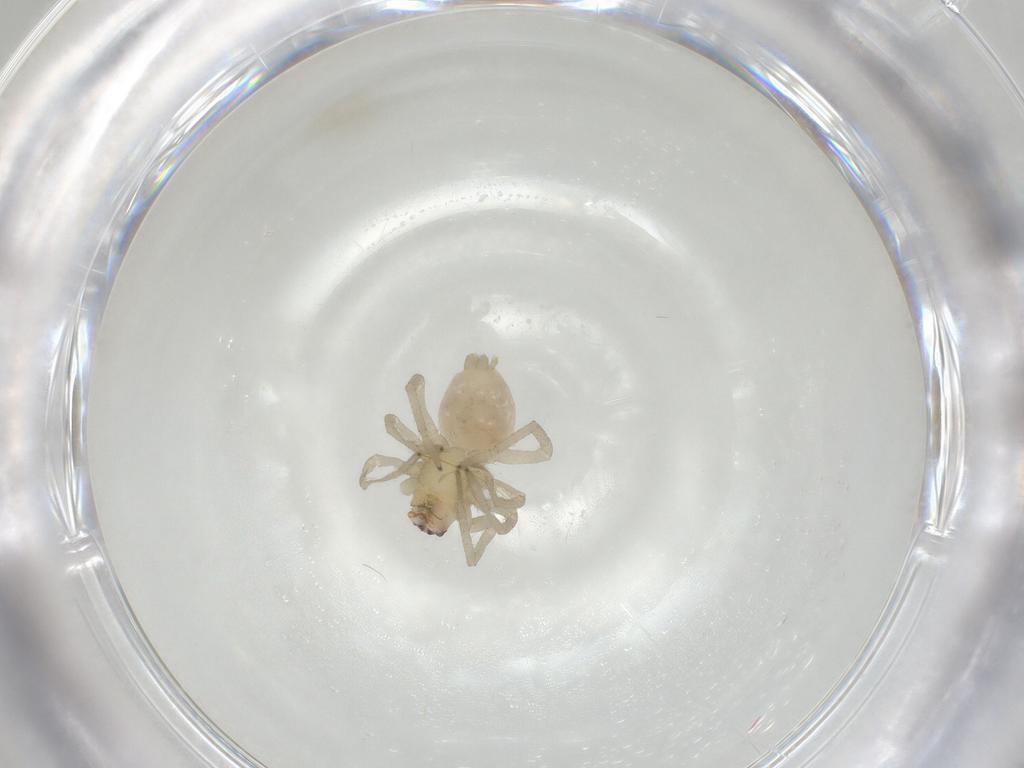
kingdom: Animalia
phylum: Arthropoda
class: Arachnida
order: Araneae
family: Cheiracanthiidae
